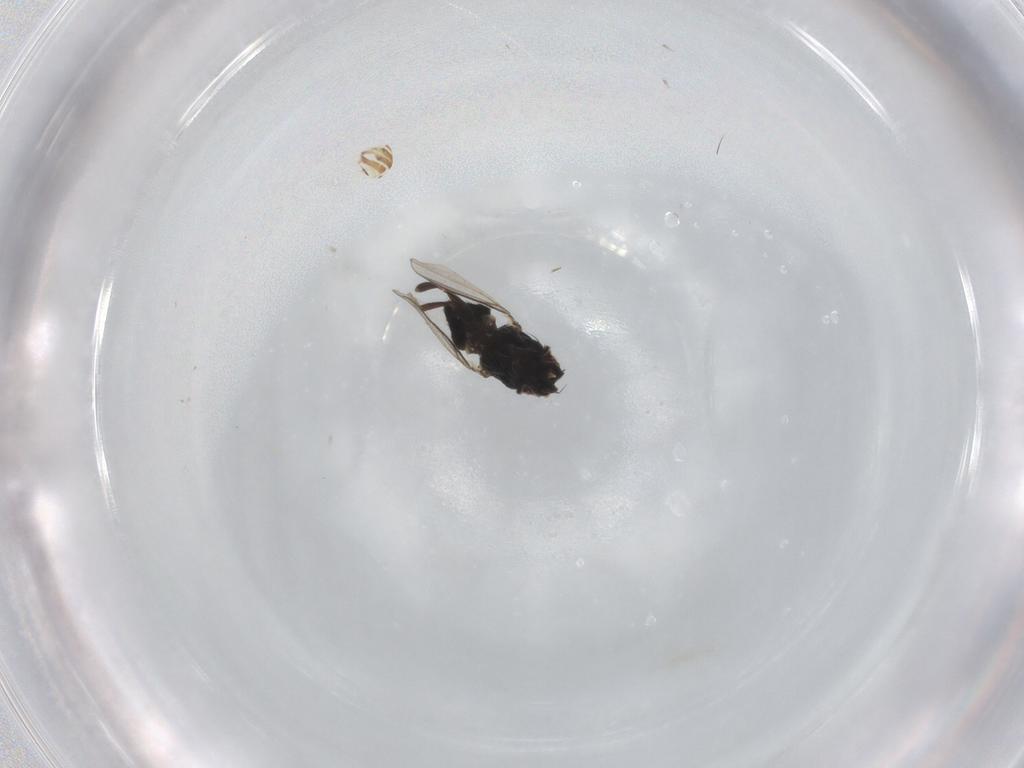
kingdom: Animalia
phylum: Arthropoda
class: Insecta
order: Diptera
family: Milichiidae
